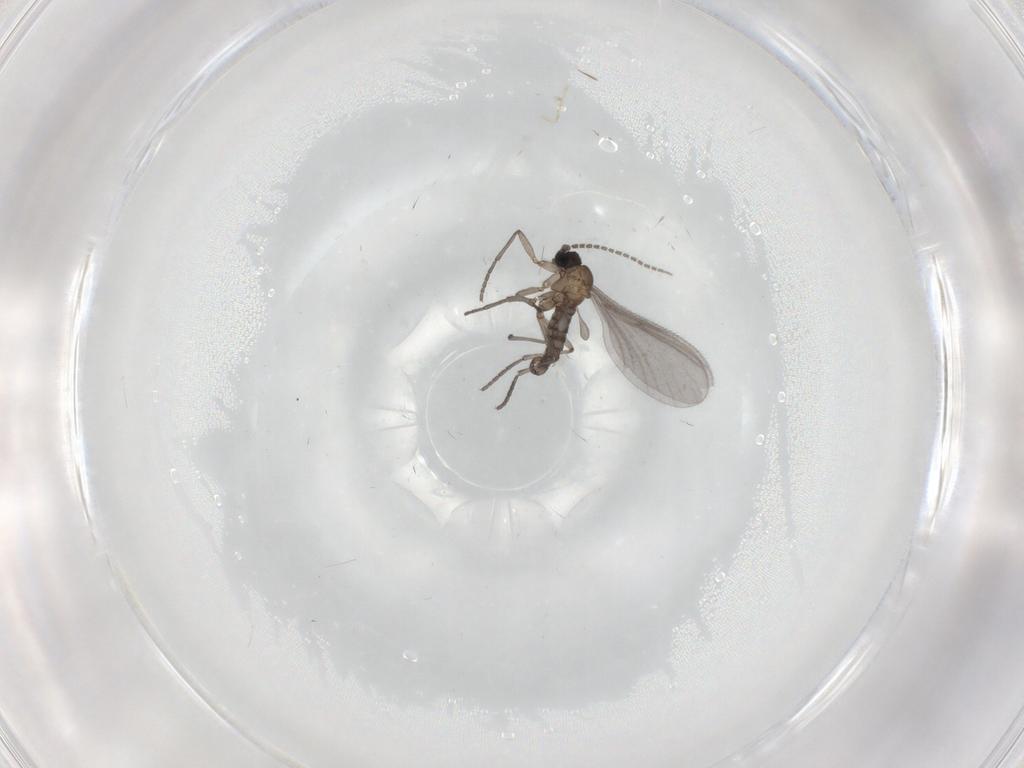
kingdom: Animalia
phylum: Arthropoda
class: Insecta
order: Diptera
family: Sciaridae
